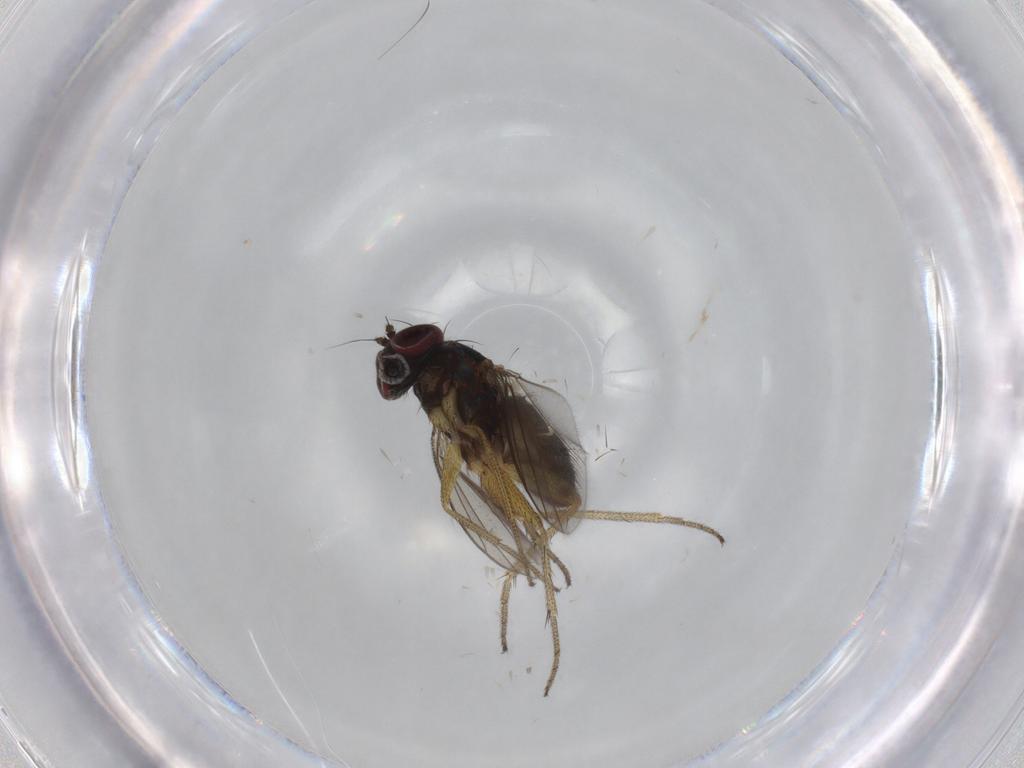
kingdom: Animalia
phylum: Arthropoda
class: Insecta
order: Diptera
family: Dolichopodidae
